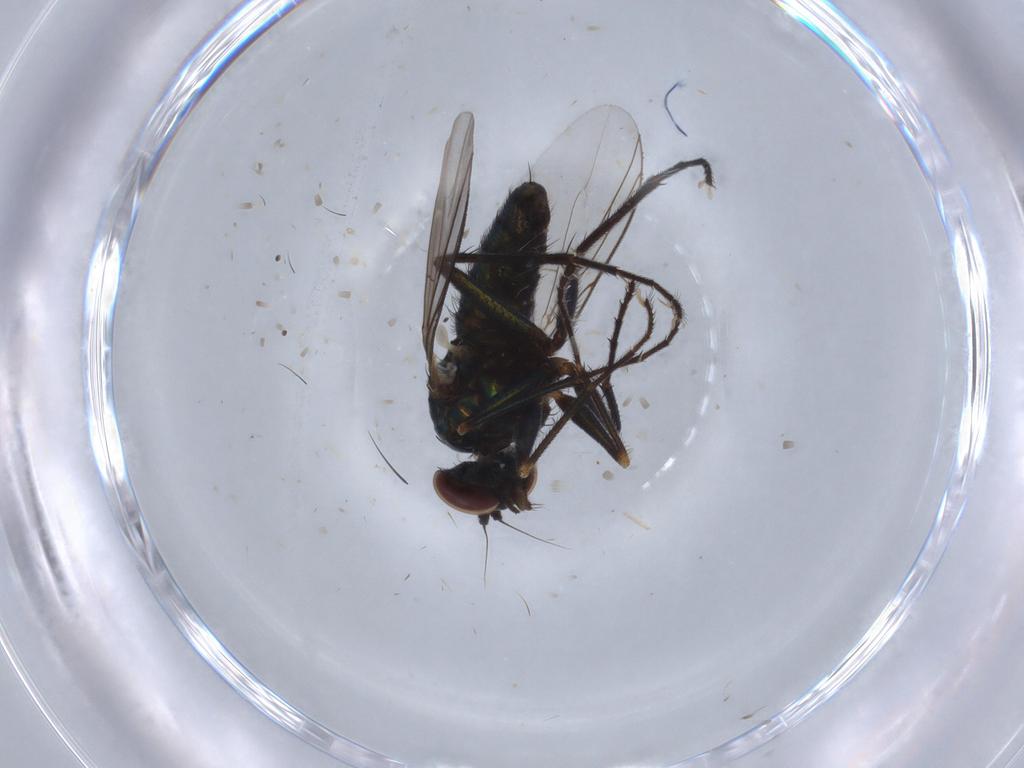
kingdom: Animalia
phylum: Arthropoda
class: Insecta
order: Diptera
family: Dolichopodidae
